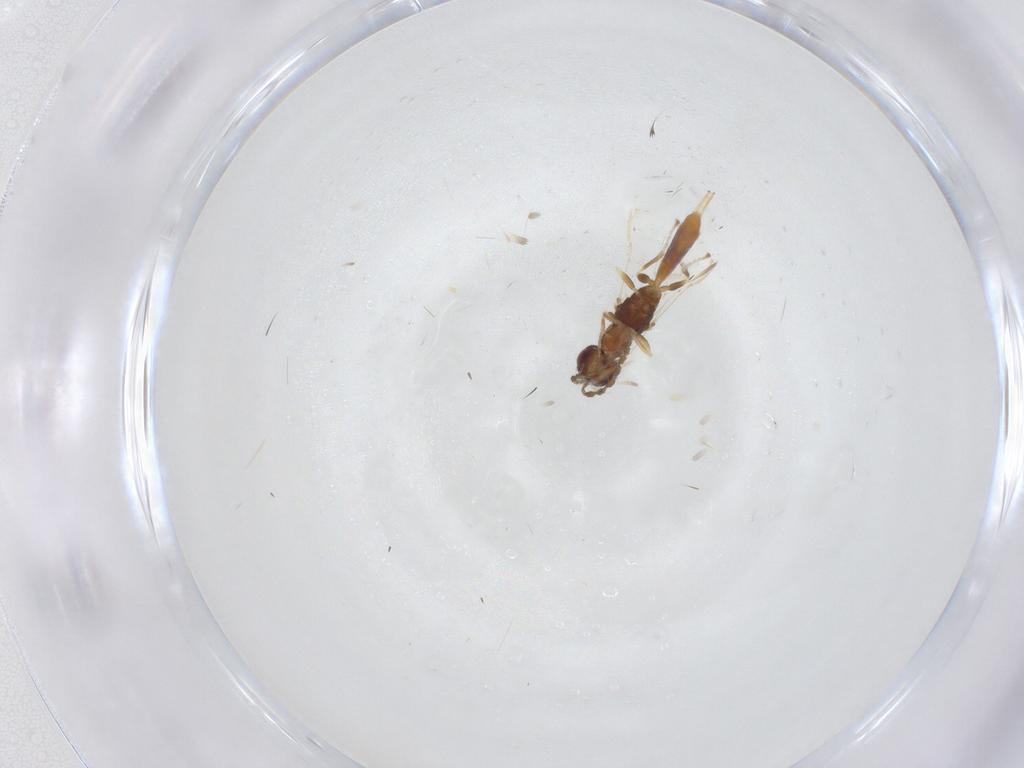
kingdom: Animalia
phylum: Arthropoda
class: Insecta
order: Hymenoptera
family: Eurytomidae
